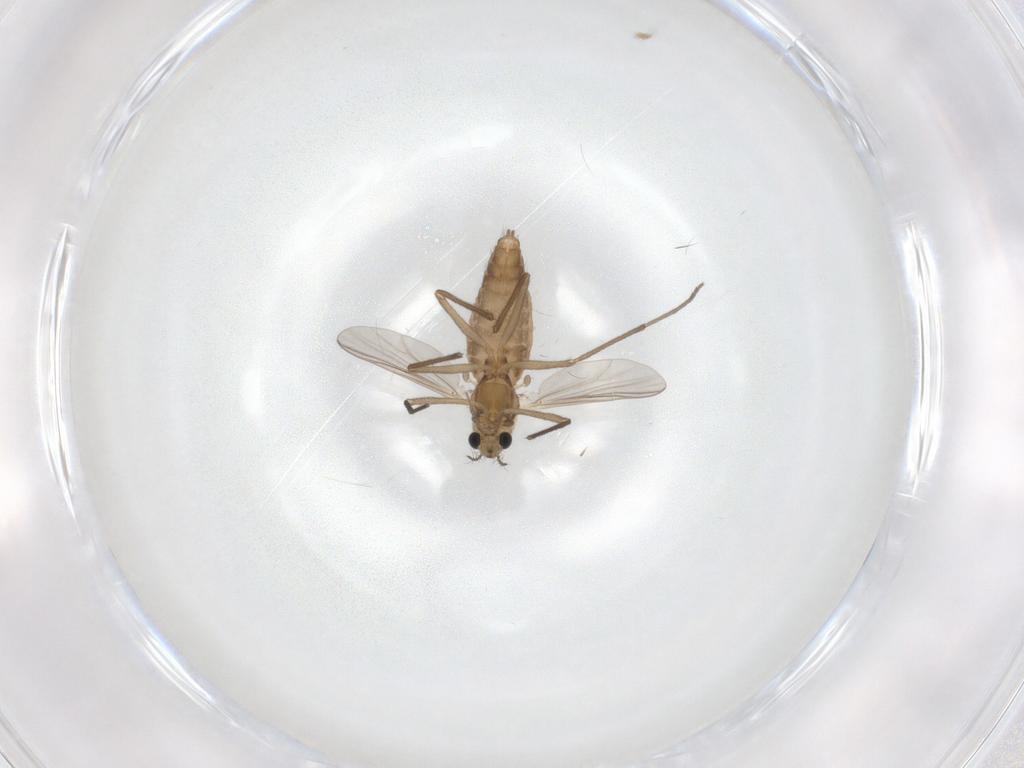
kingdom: Animalia
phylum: Arthropoda
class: Insecta
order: Diptera
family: Chironomidae
